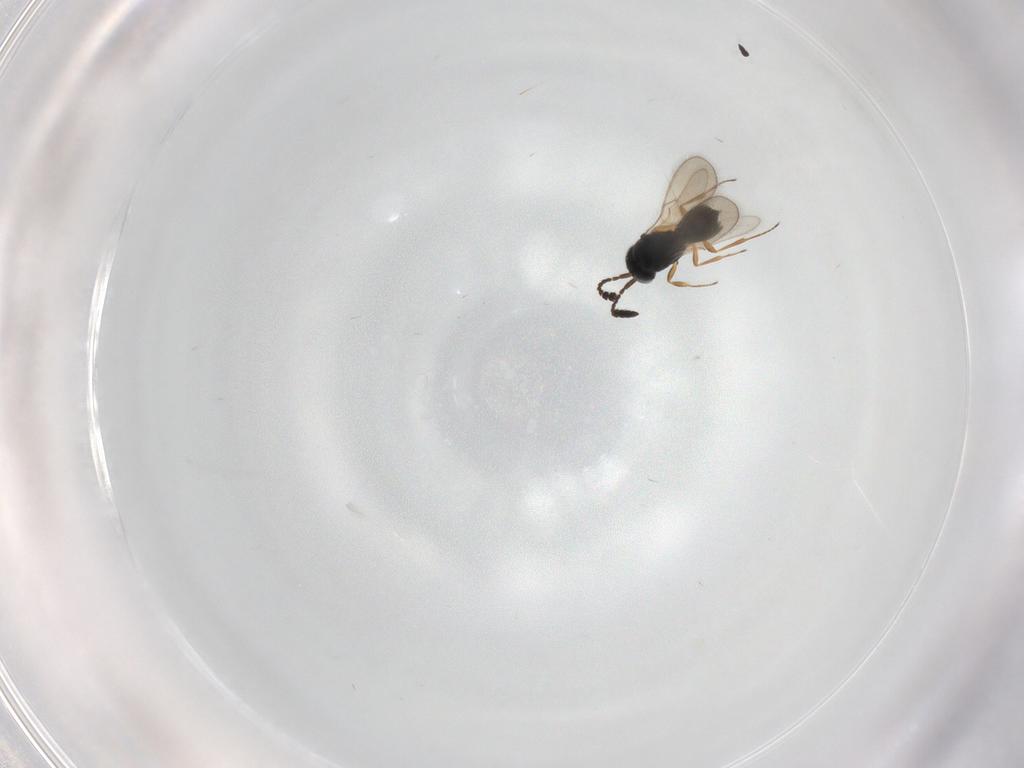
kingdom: Animalia
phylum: Arthropoda
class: Insecta
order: Hymenoptera
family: Scelionidae
